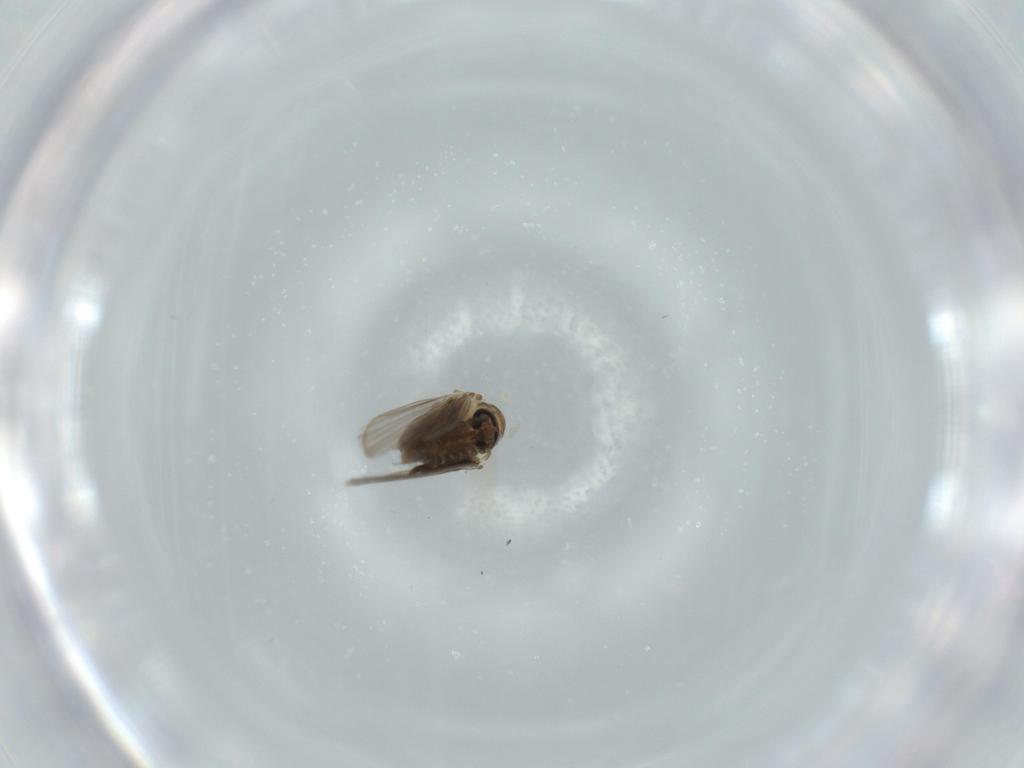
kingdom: Animalia
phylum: Arthropoda
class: Insecta
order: Diptera
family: Psychodidae
